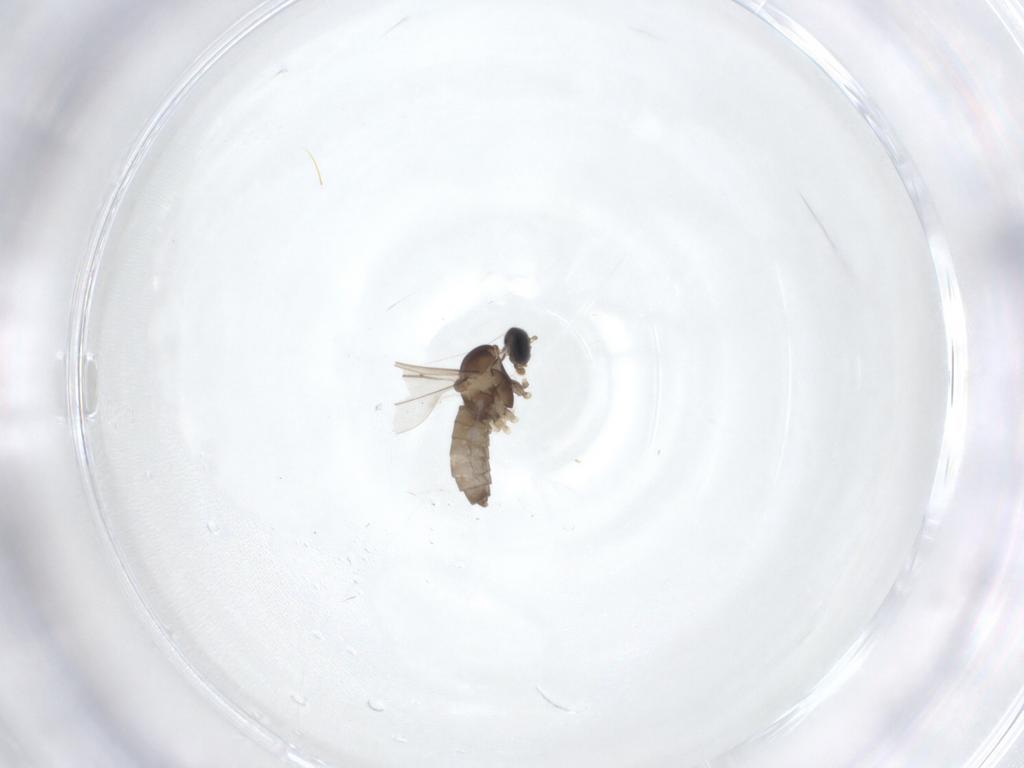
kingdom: Animalia
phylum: Arthropoda
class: Insecta
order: Diptera
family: Cecidomyiidae
